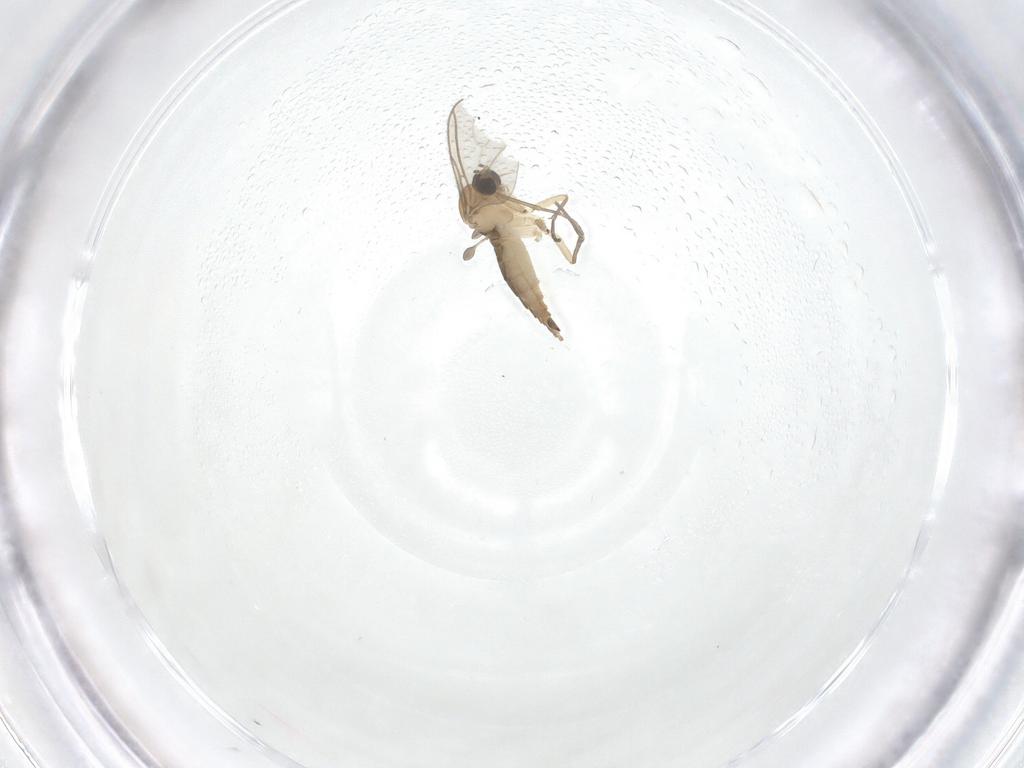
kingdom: Animalia
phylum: Arthropoda
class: Insecta
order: Diptera
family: Sciaridae
